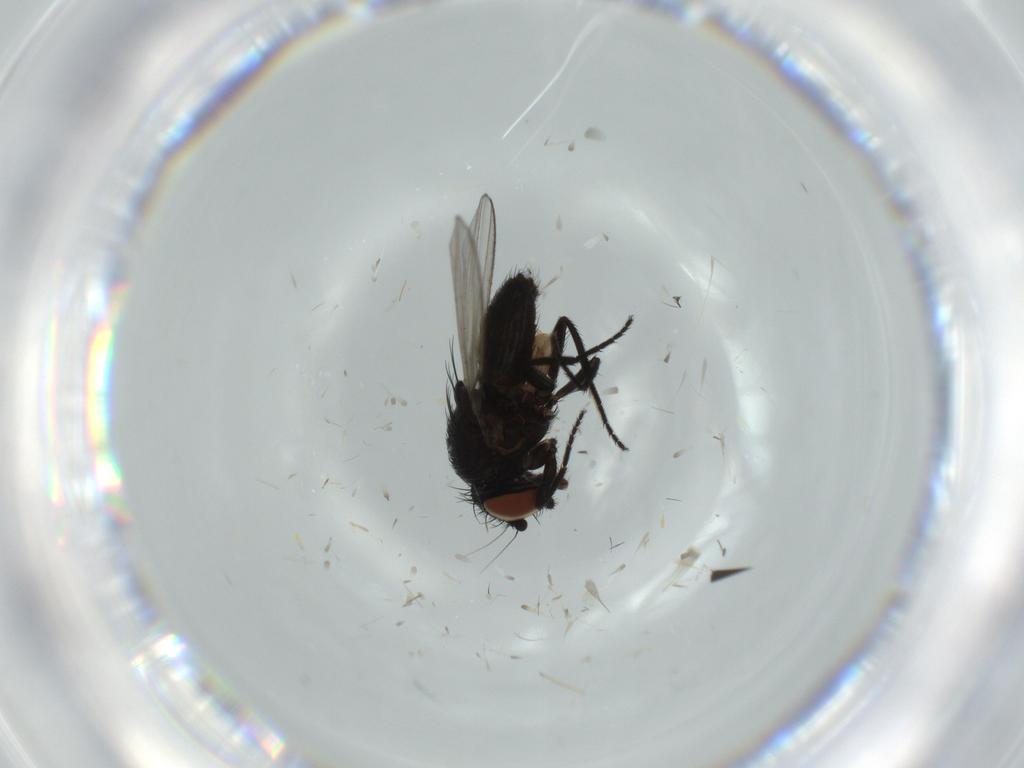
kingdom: Animalia
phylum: Arthropoda
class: Insecta
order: Diptera
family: Milichiidae
